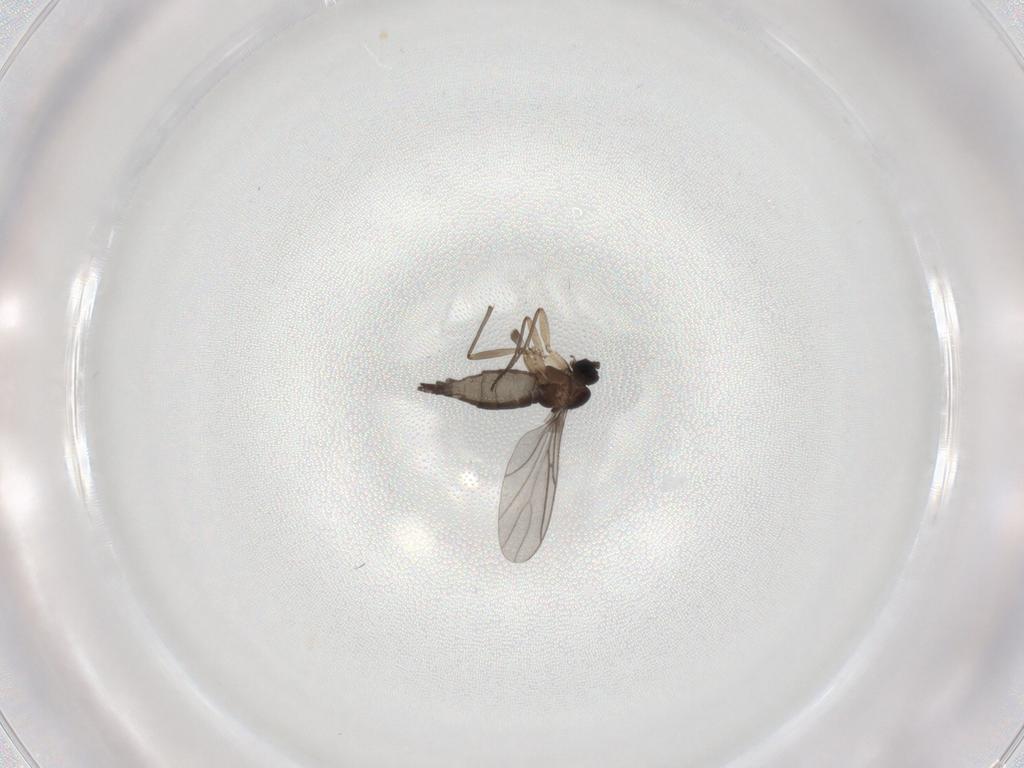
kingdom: Animalia
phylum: Arthropoda
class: Insecta
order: Diptera
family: Sciaridae
